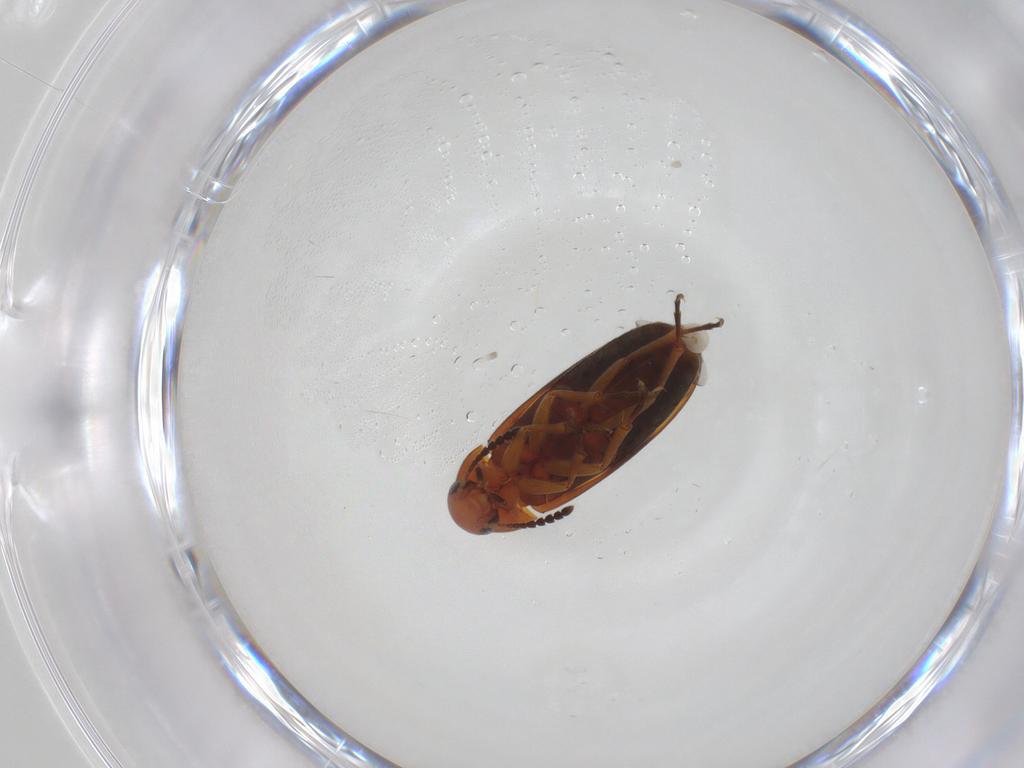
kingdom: Animalia
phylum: Arthropoda
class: Insecta
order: Coleoptera
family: Scraptiidae
